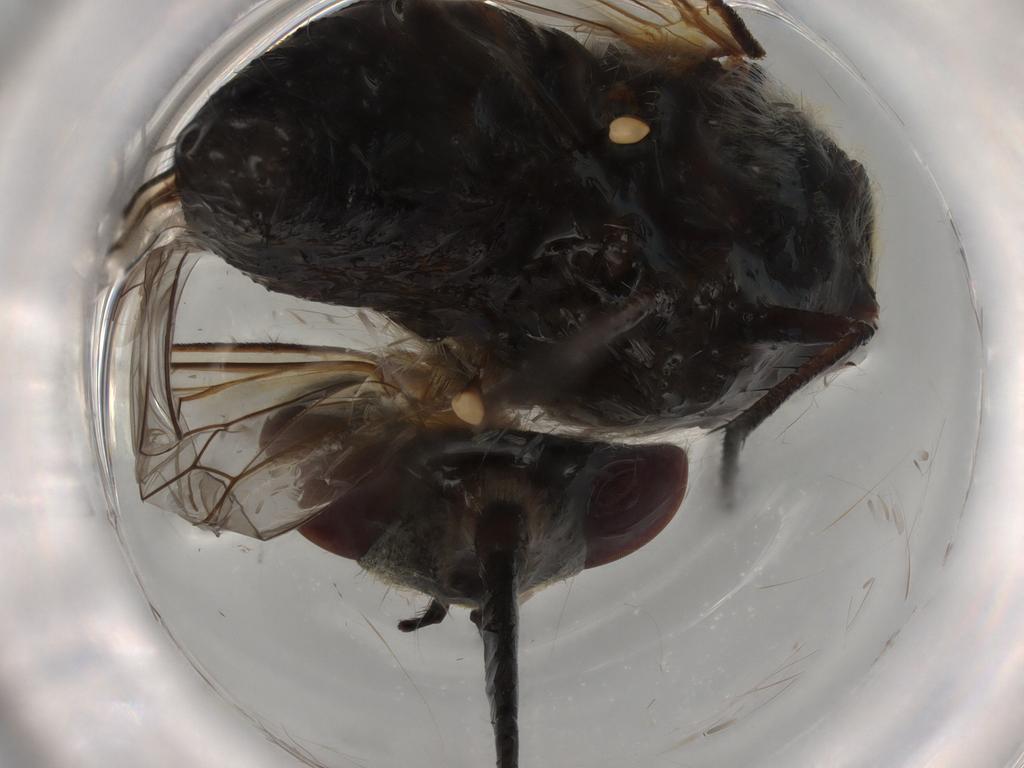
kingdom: Animalia
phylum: Arthropoda
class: Insecta
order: Diptera
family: Bombyliidae
